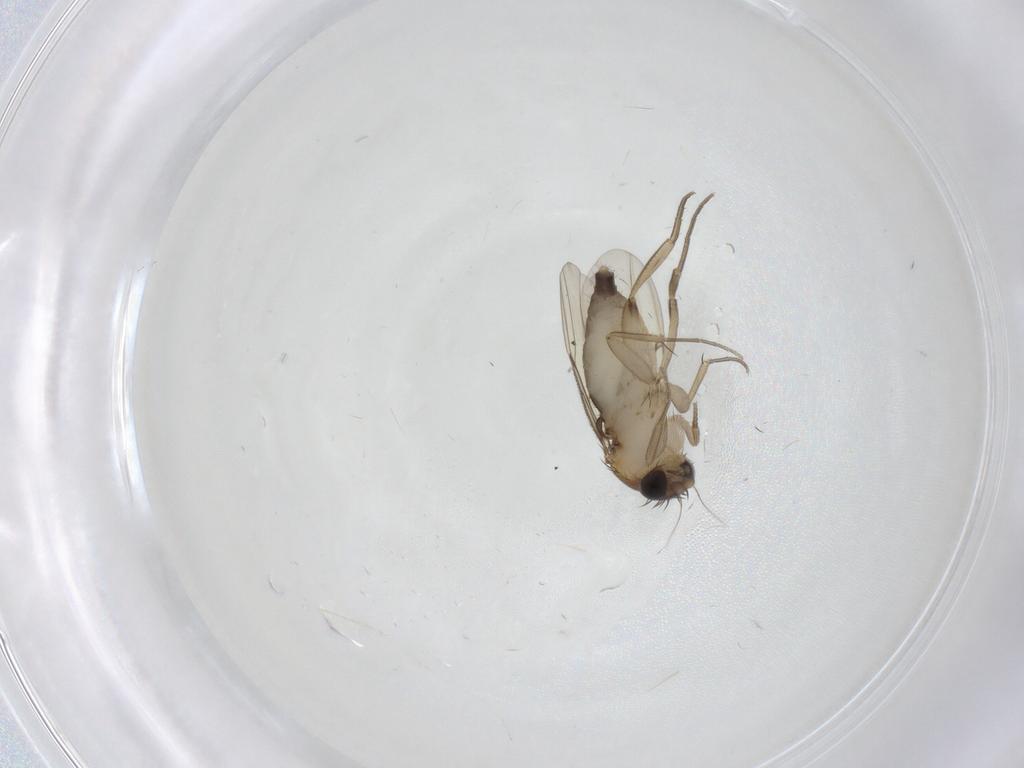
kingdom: Animalia
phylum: Arthropoda
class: Insecta
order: Diptera
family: Phoridae
